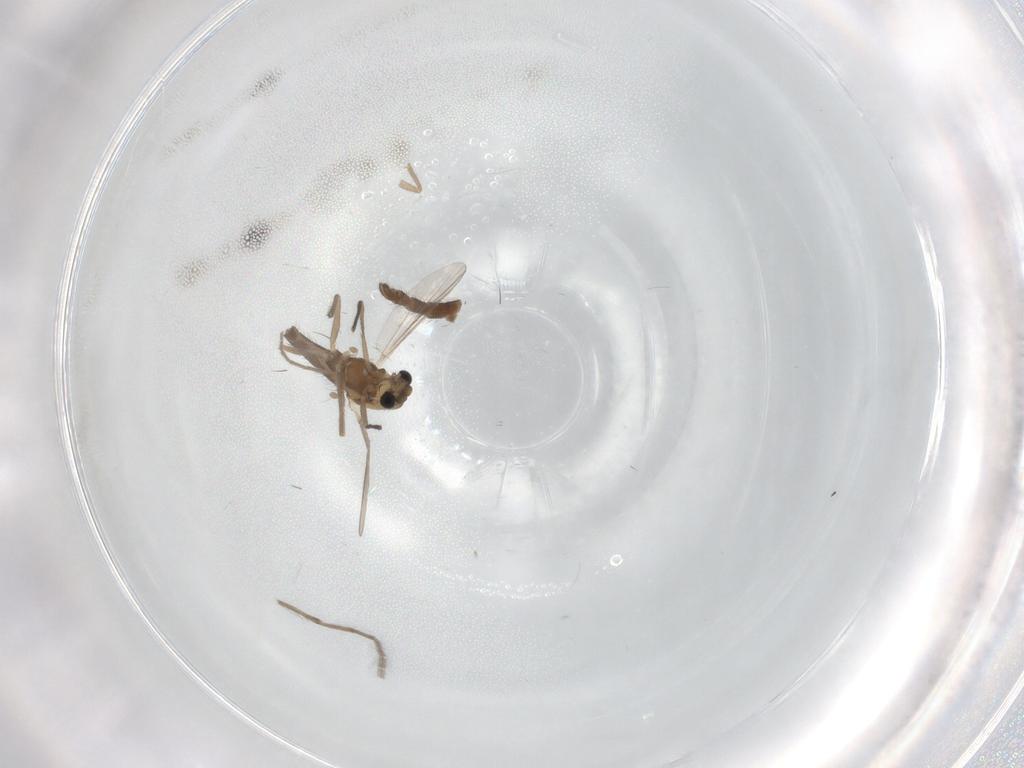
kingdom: Animalia
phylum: Arthropoda
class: Insecta
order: Diptera
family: Chironomidae
